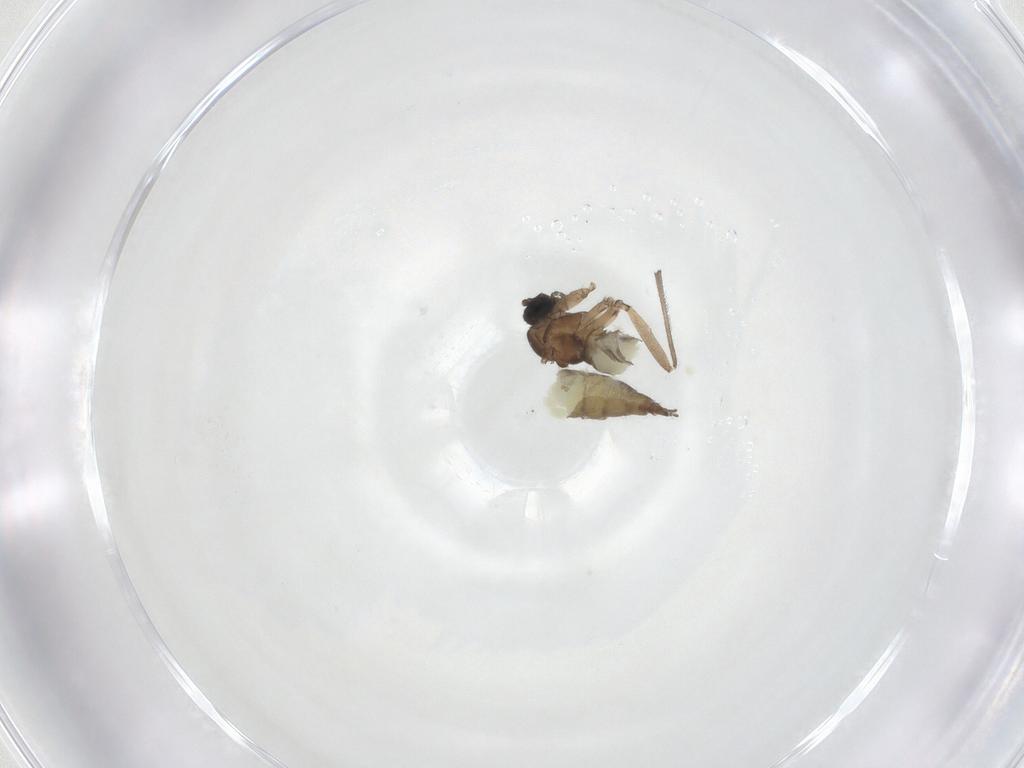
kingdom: Animalia
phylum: Arthropoda
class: Insecta
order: Diptera
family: Sciaridae
